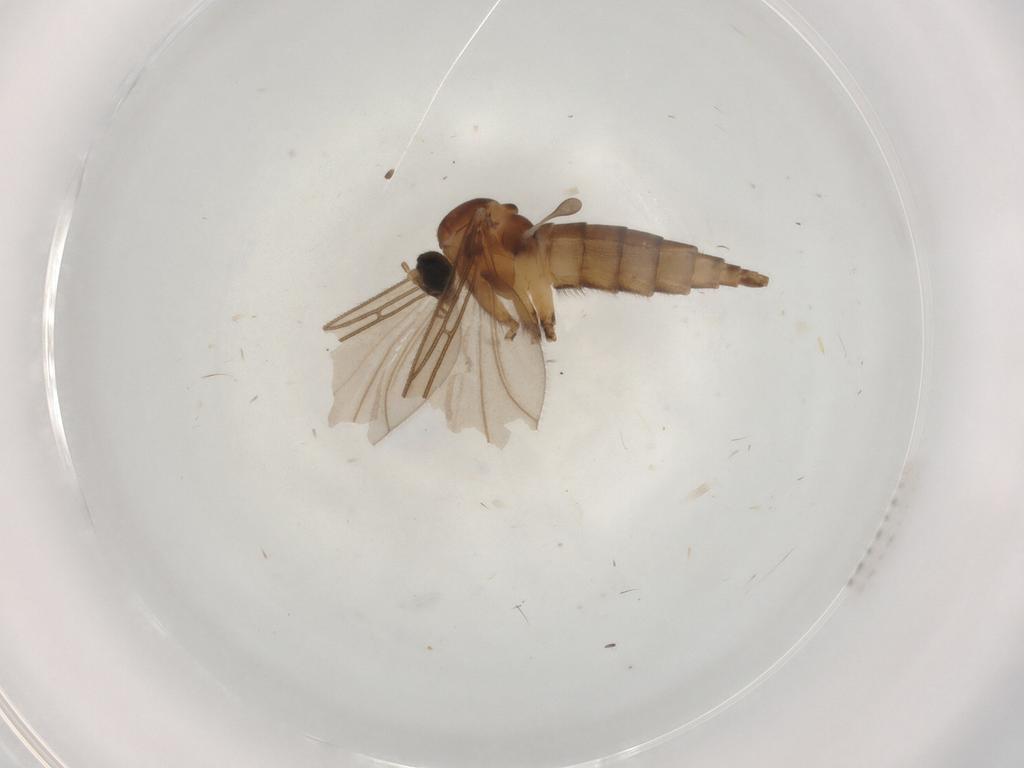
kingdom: Animalia
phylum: Arthropoda
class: Insecta
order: Diptera
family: Sciaridae
